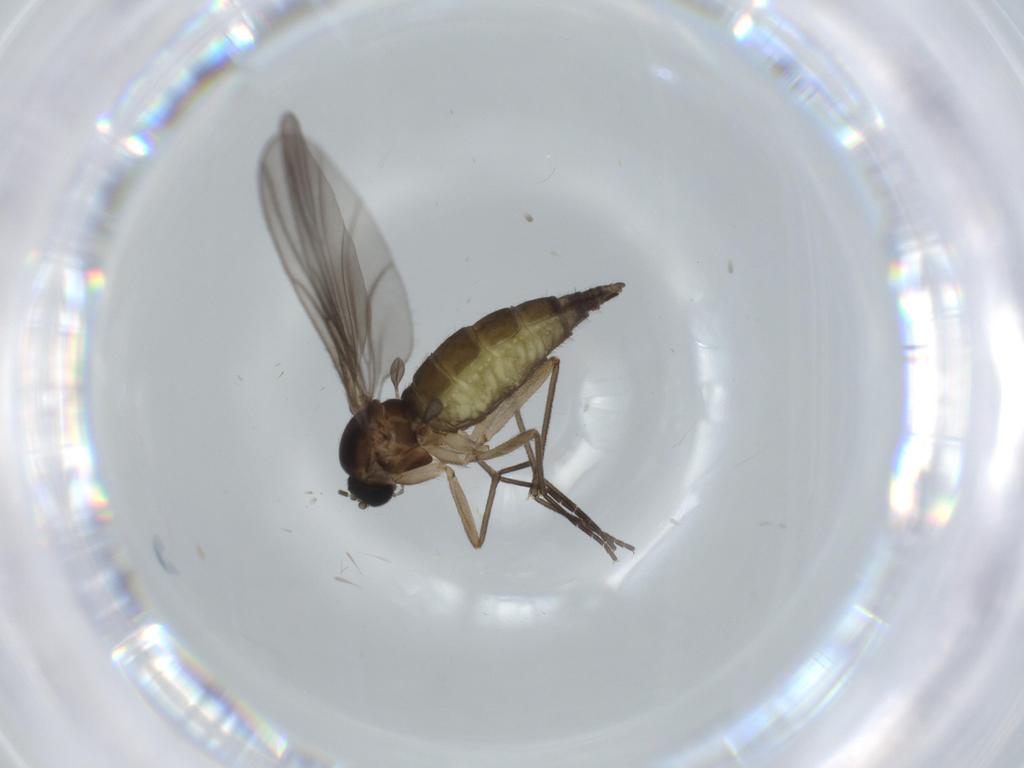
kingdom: Animalia
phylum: Arthropoda
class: Insecta
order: Diptera
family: Sciaridae
